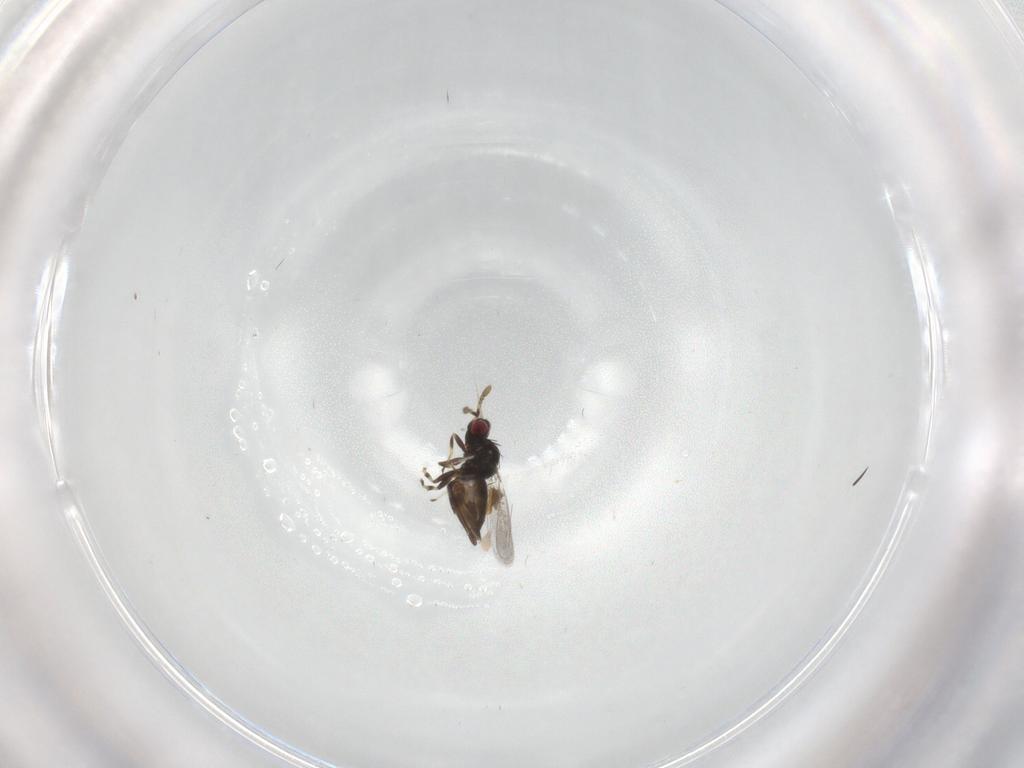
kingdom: Animalia
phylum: Arthropoda
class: Insecta
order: Hymenoptera
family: Eulophidae
